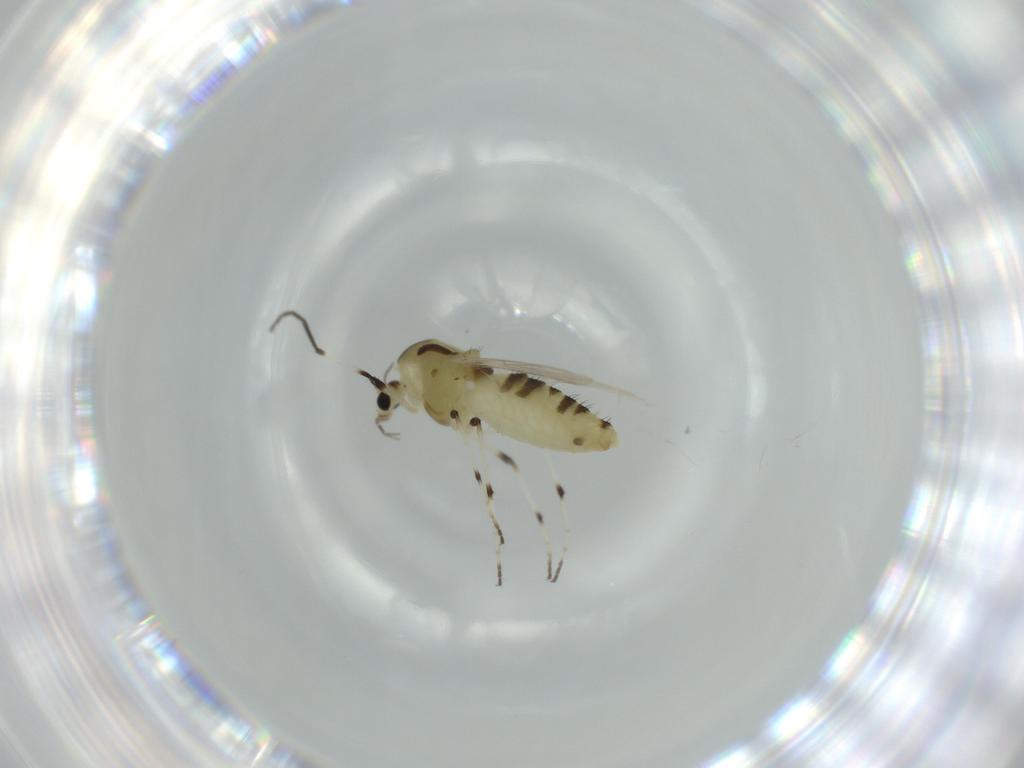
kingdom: Animalia
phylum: Arthropoda
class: Insecta
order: Diptera
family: Chironomidae
